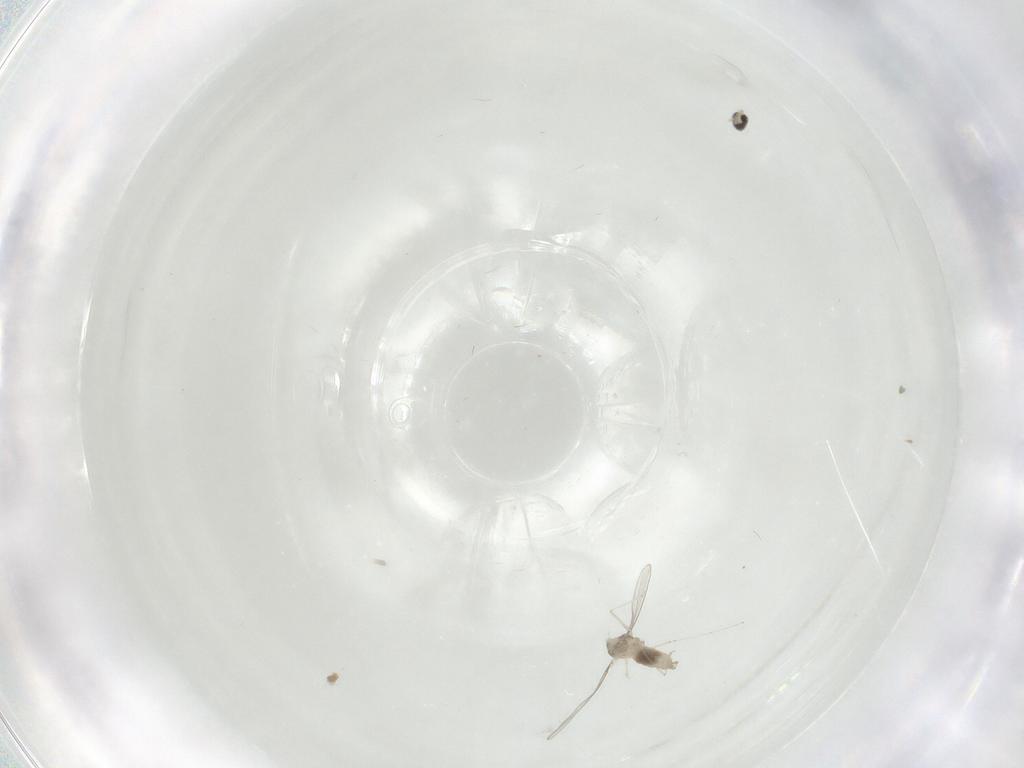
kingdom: Animalia
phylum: Arthropoda
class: Insecta
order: Diptera
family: Cecidomyiidae
